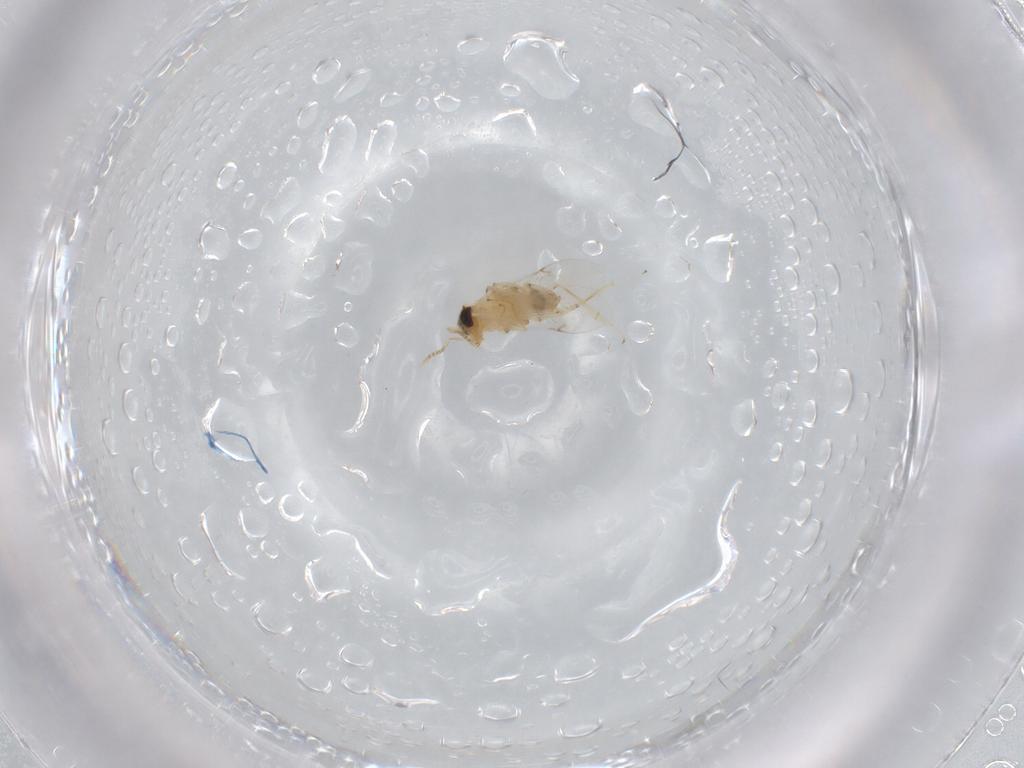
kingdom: Animalia
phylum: Arthropoda
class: Insecta
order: Hymenoptera
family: Encyrtidae
